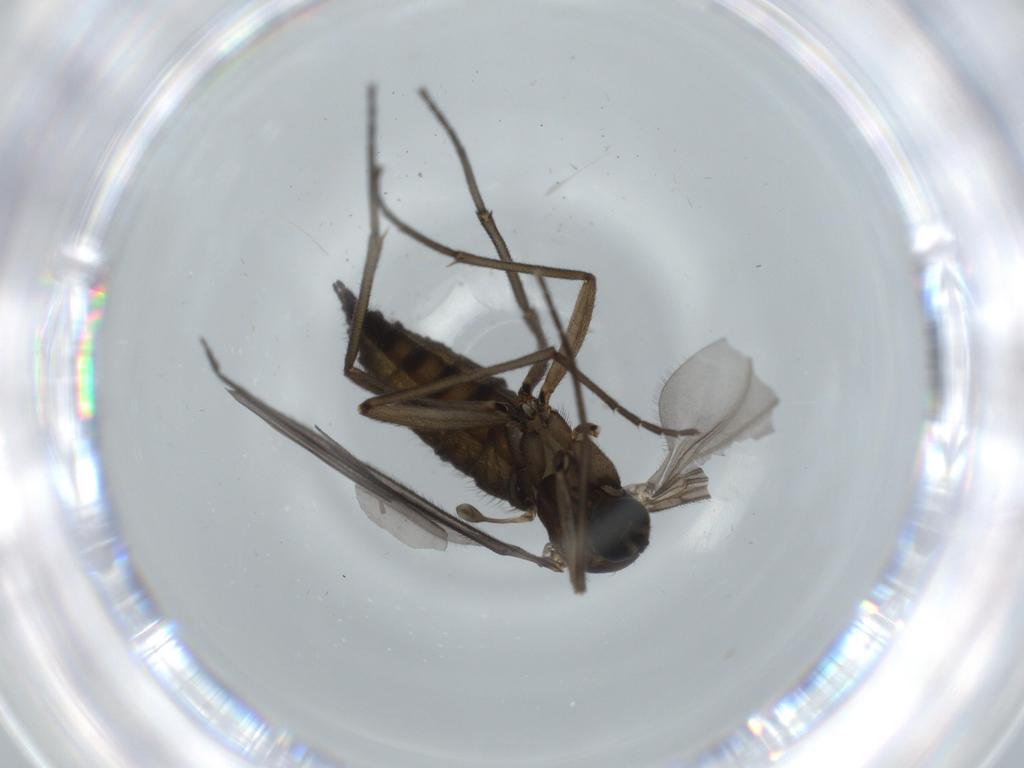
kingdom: Animalia
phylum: Arthropoda
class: Insecta
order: Diptera
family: Sciaridae
